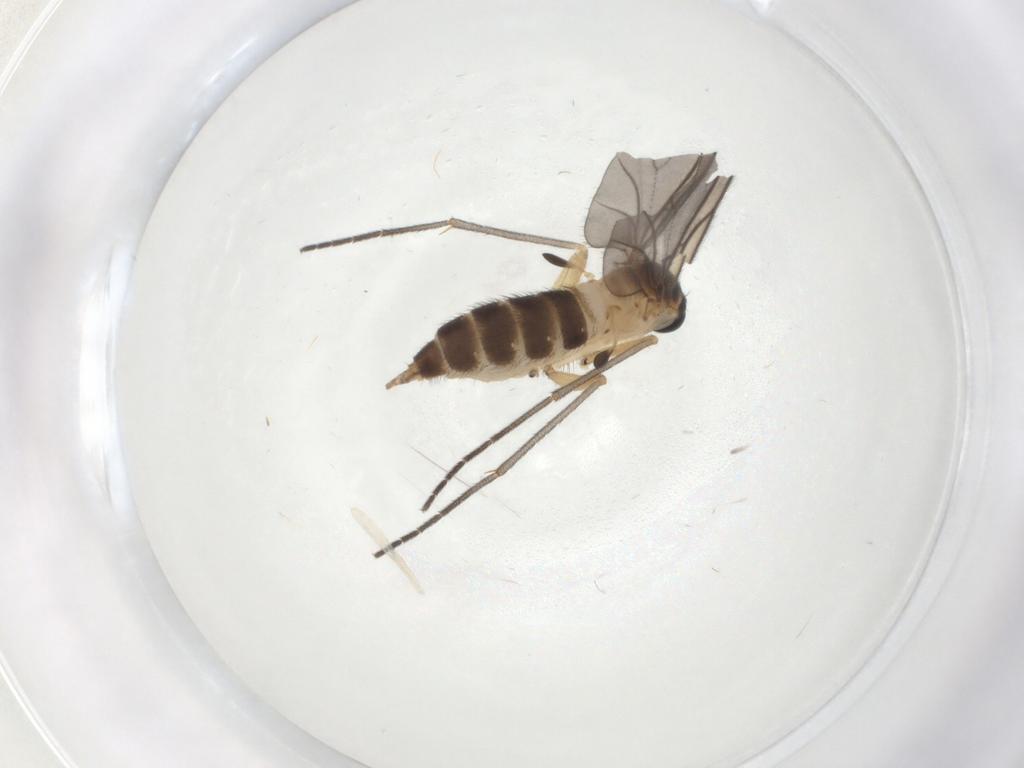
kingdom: Animalia
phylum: Arthropoda
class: Insecta
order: Diptera
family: Sciaridae
